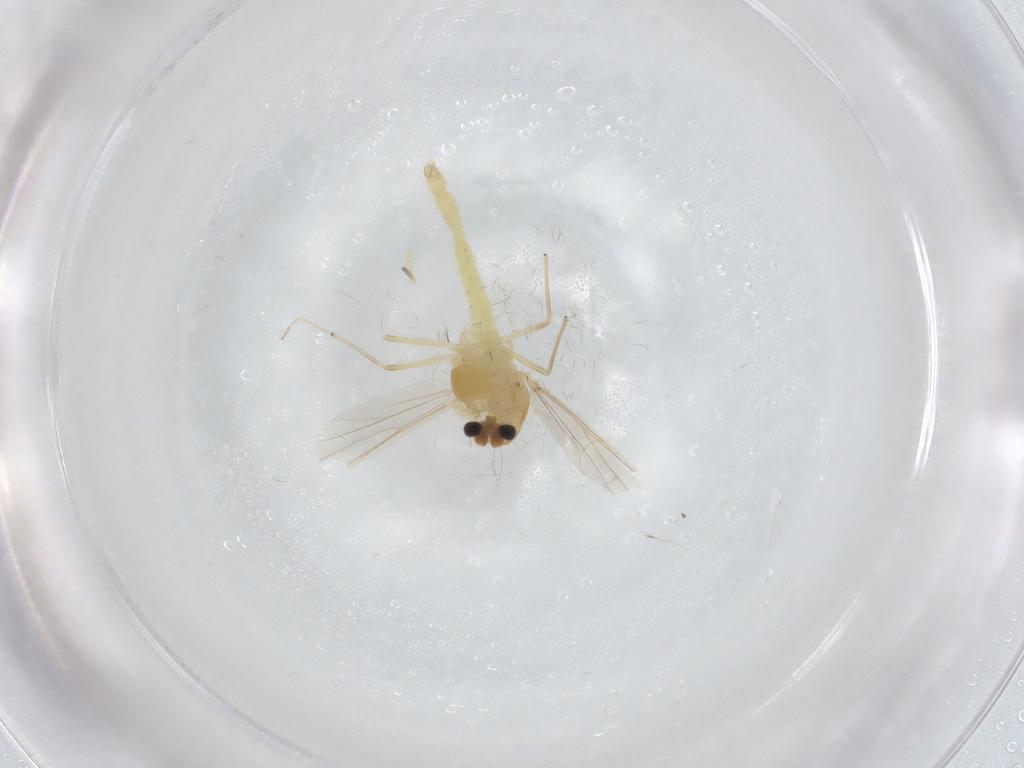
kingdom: Animalia
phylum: Arthropoda
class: Insecta
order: Diptera
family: Chironomidae
